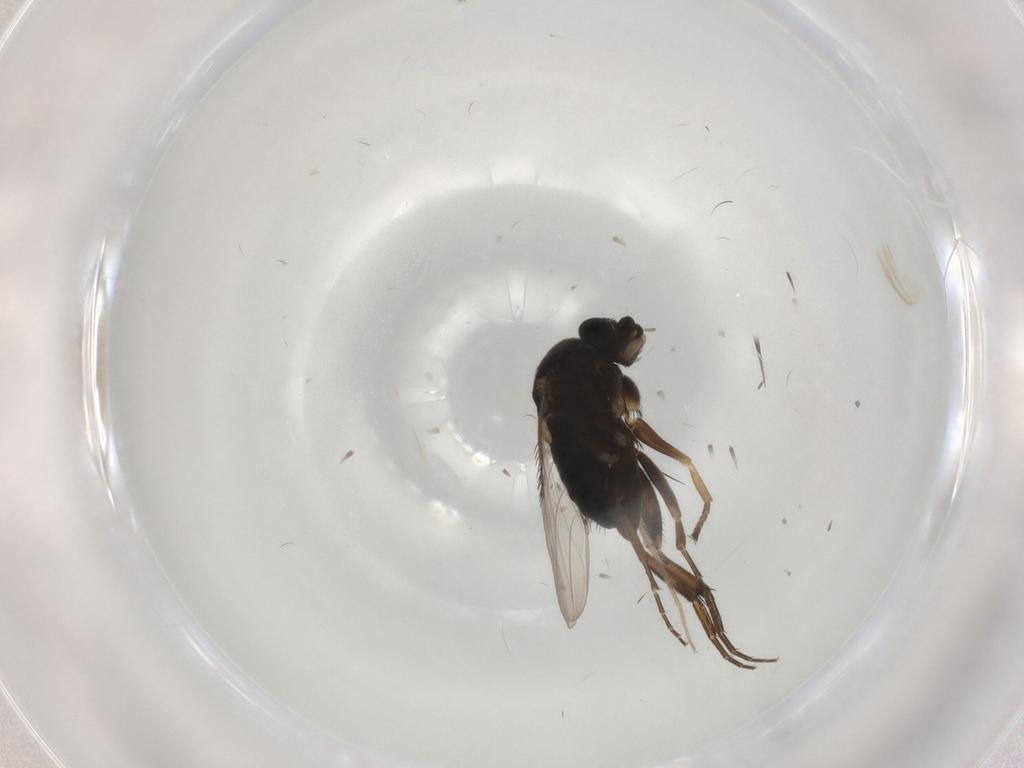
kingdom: Animalia
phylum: Arthropoda
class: Insecta
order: Diptera
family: Phoridae
